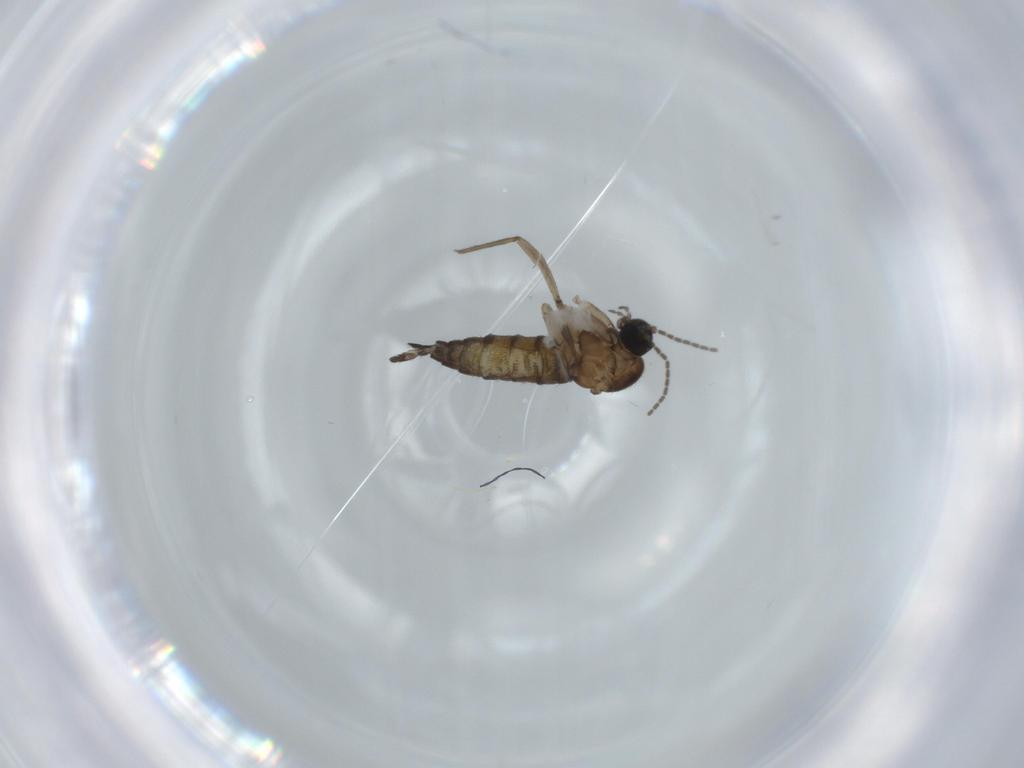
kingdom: Animalia
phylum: Arthropoda
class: Insecta
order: Diptera
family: Sciaridae
